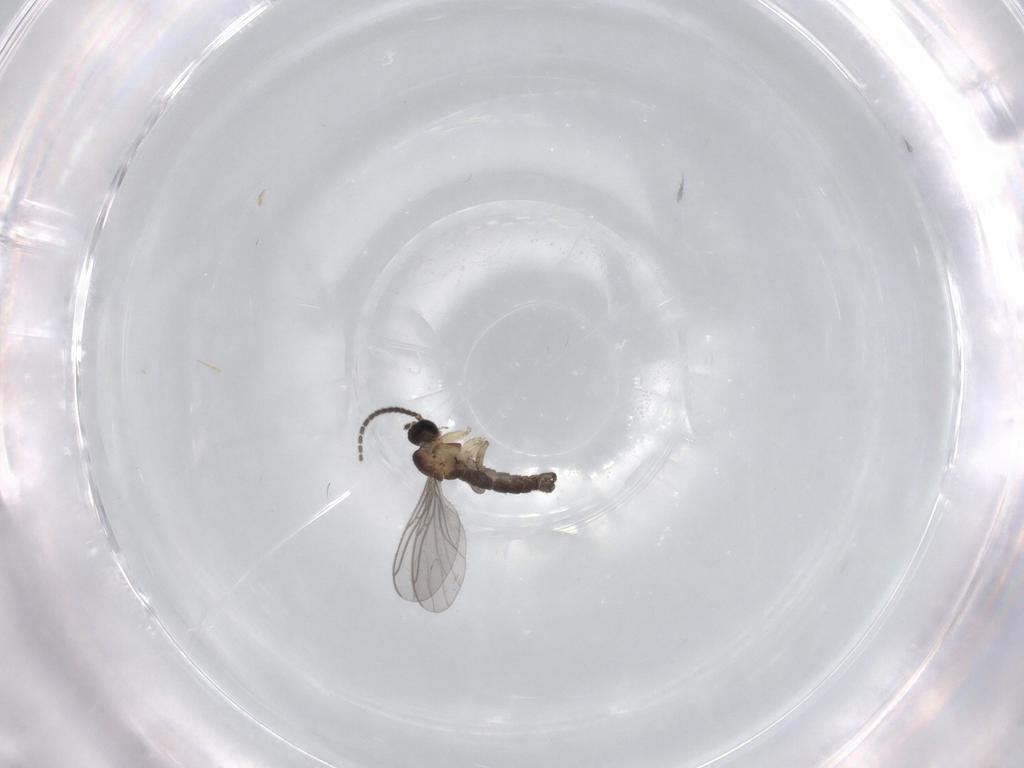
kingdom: Animalia
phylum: Arthropoda
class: Insecta
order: Diptera
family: Sciaridae
